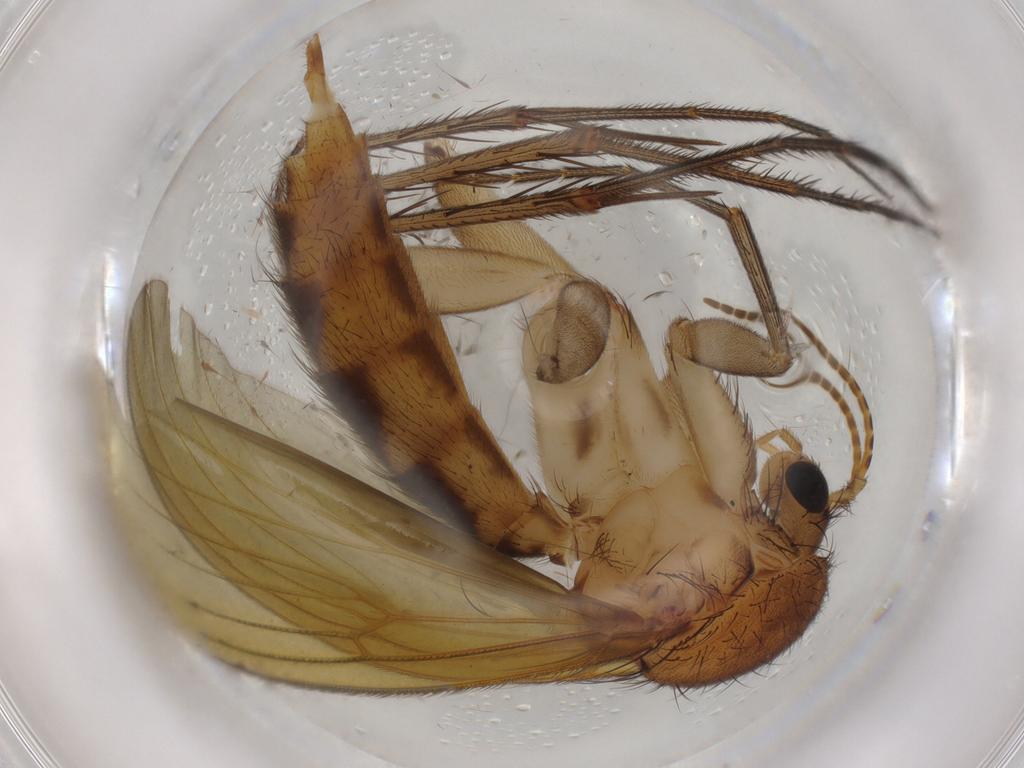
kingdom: Animalia
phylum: Arthropoda
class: Insecta
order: Diptera
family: Mycetophilidae
